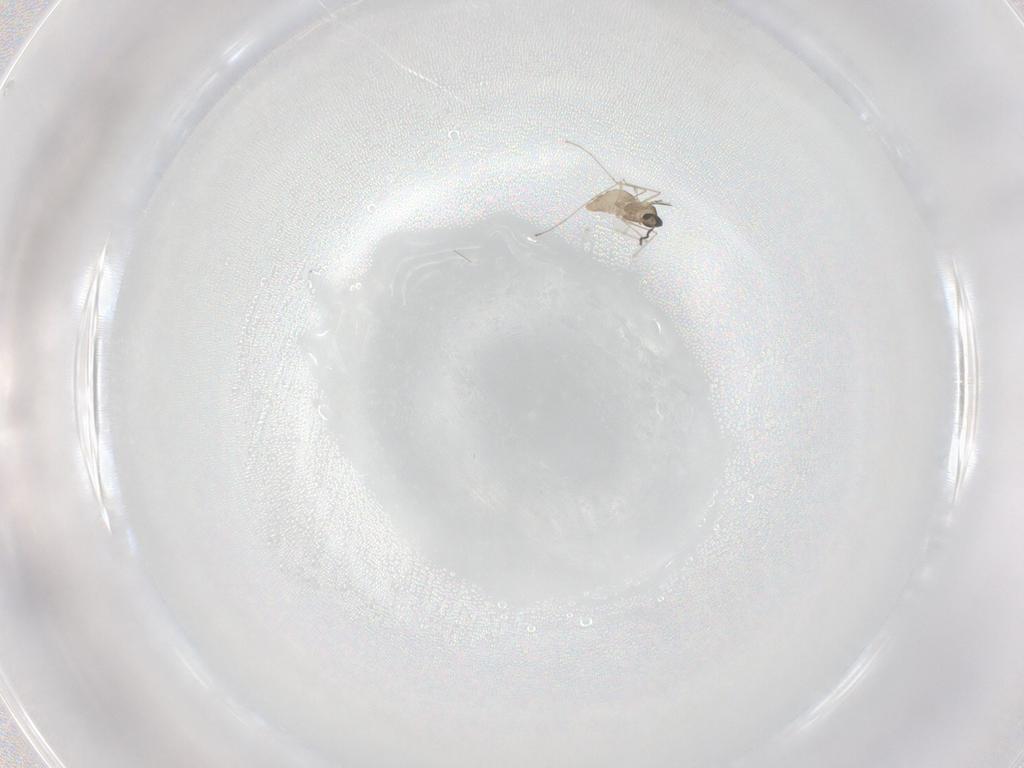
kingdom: Animalia
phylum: Arthropoda
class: Insecta
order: Diptera
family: Cecidomyiidae
